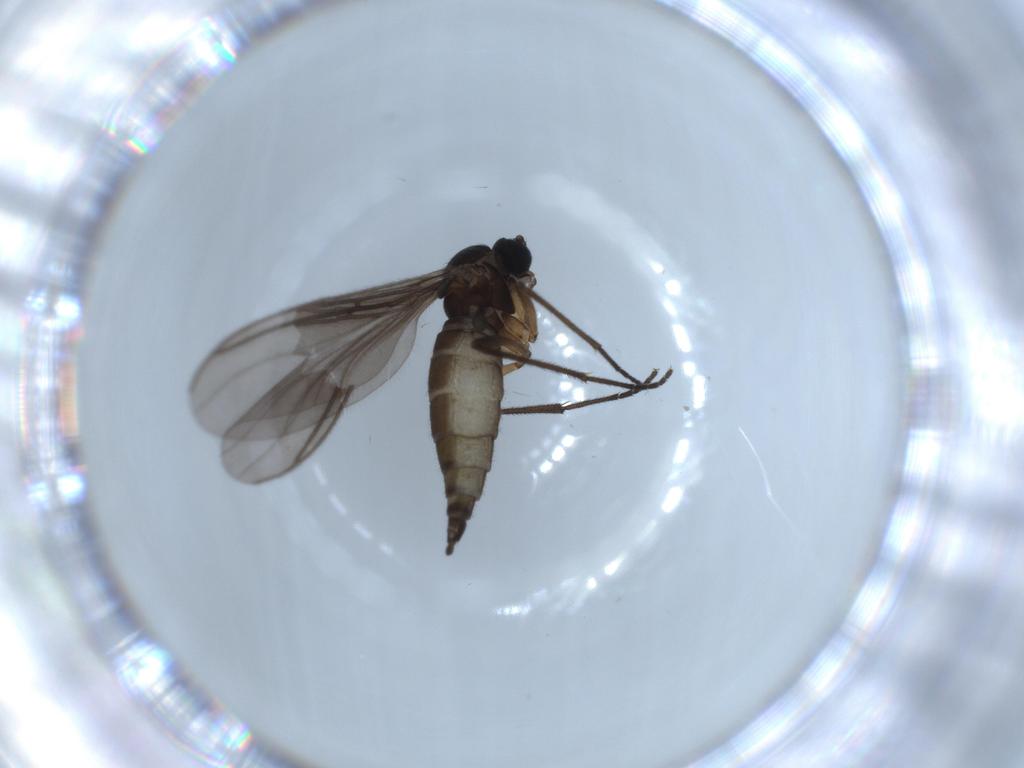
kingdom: Animalia
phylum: Arthropoda
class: Insecta
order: Diptera
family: Sciaridae
